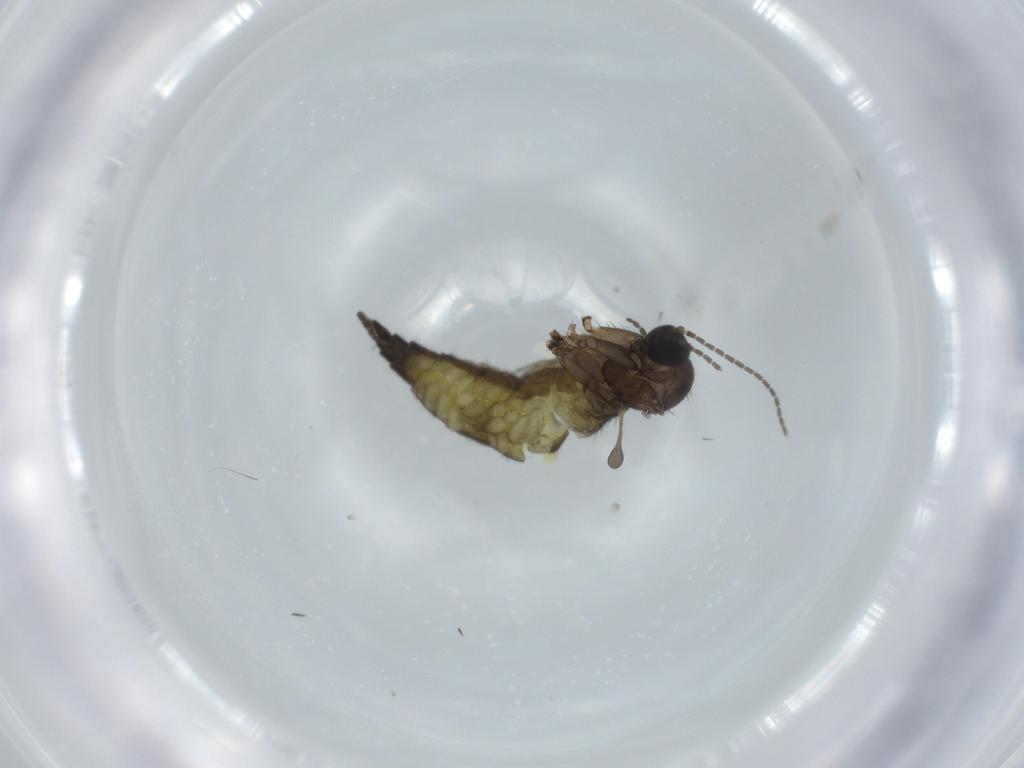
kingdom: Animalia
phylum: Arthropoda
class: Insecta
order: Diptera
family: Sciaridae
